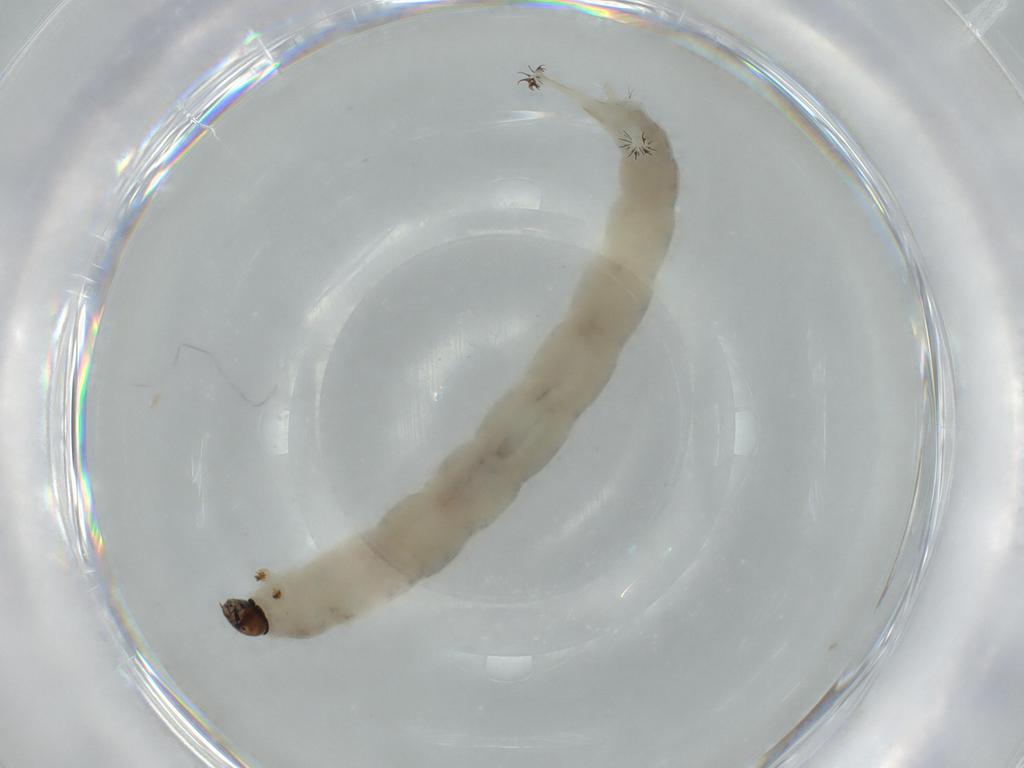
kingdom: Animalia
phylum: Arthropoda
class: Insecta
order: Diptera
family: Chironomidae
